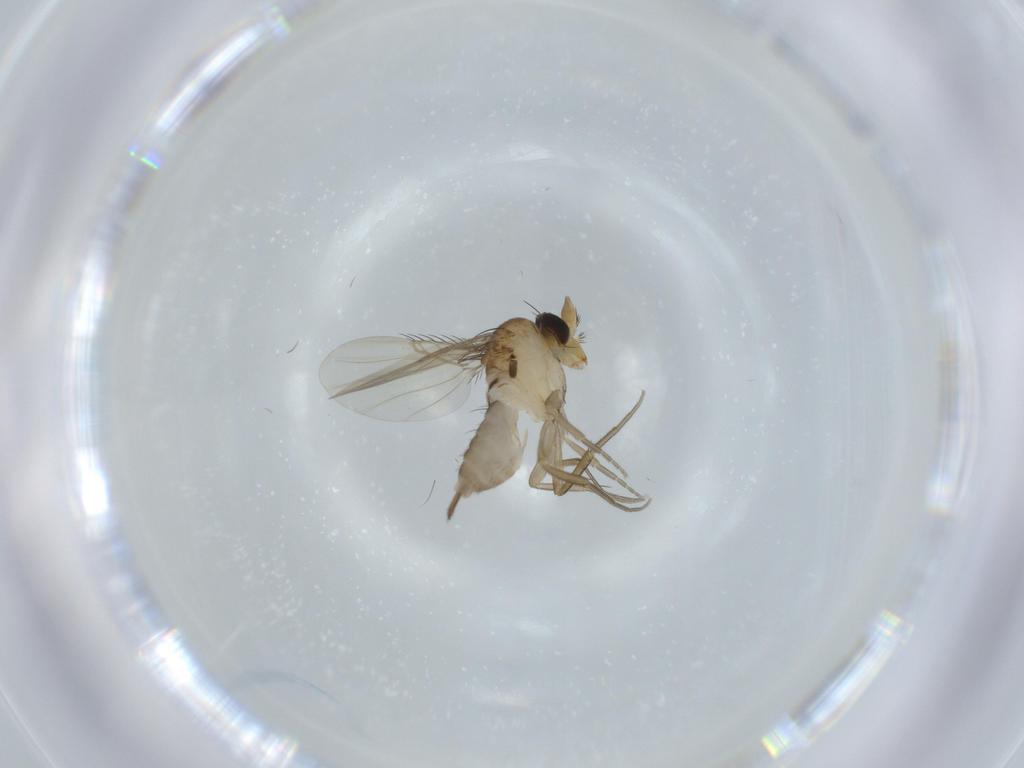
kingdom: Animalia
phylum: Arthropoda
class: Insecta
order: Diptera
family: Phoridae
